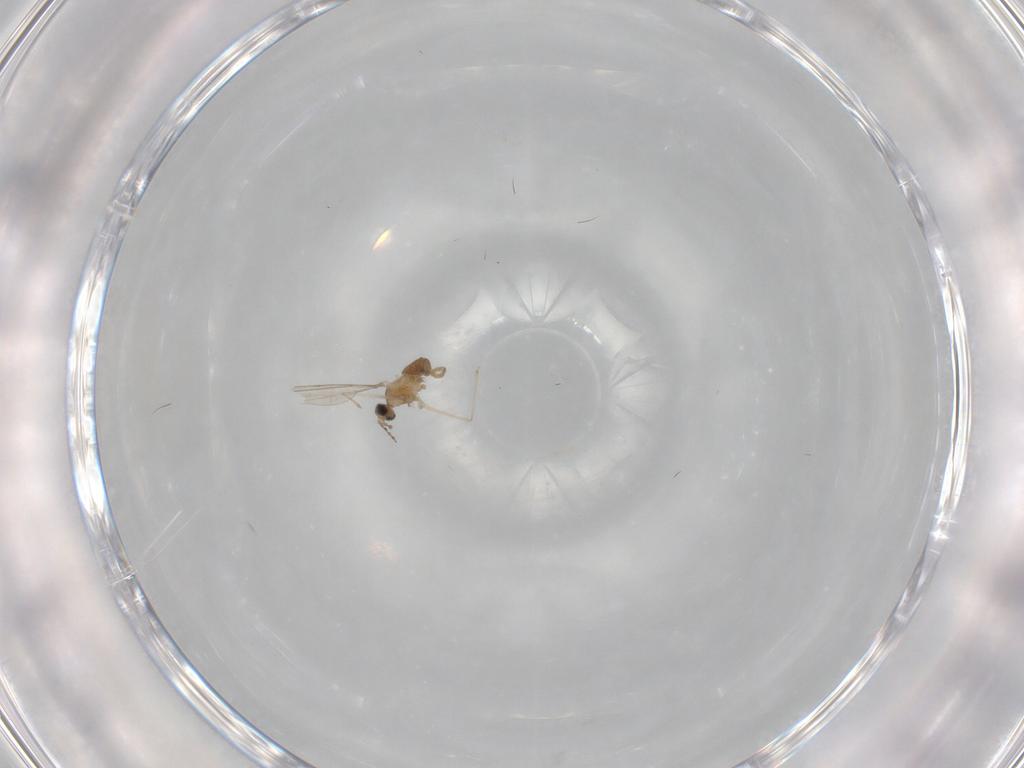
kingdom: Animalia
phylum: Arthropoda
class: Insecta
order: Diptera
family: Cecidomyiidae
